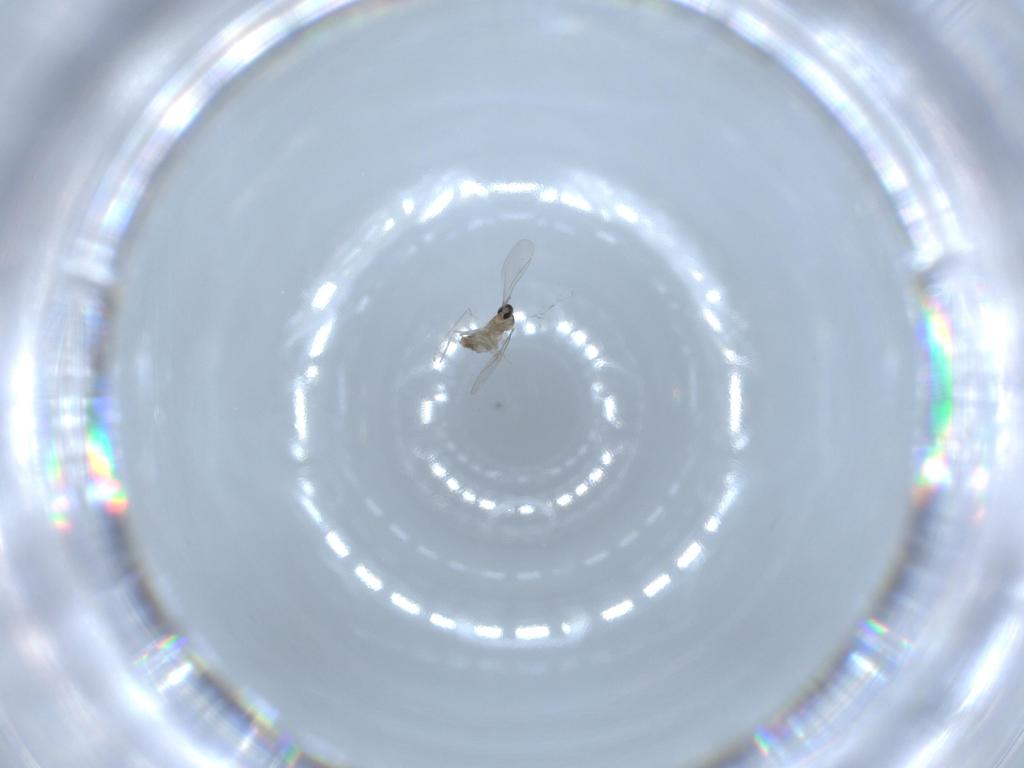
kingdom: Animalia
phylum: Arthropoda
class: Insecta
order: Diptera
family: Cecidomyiidae
